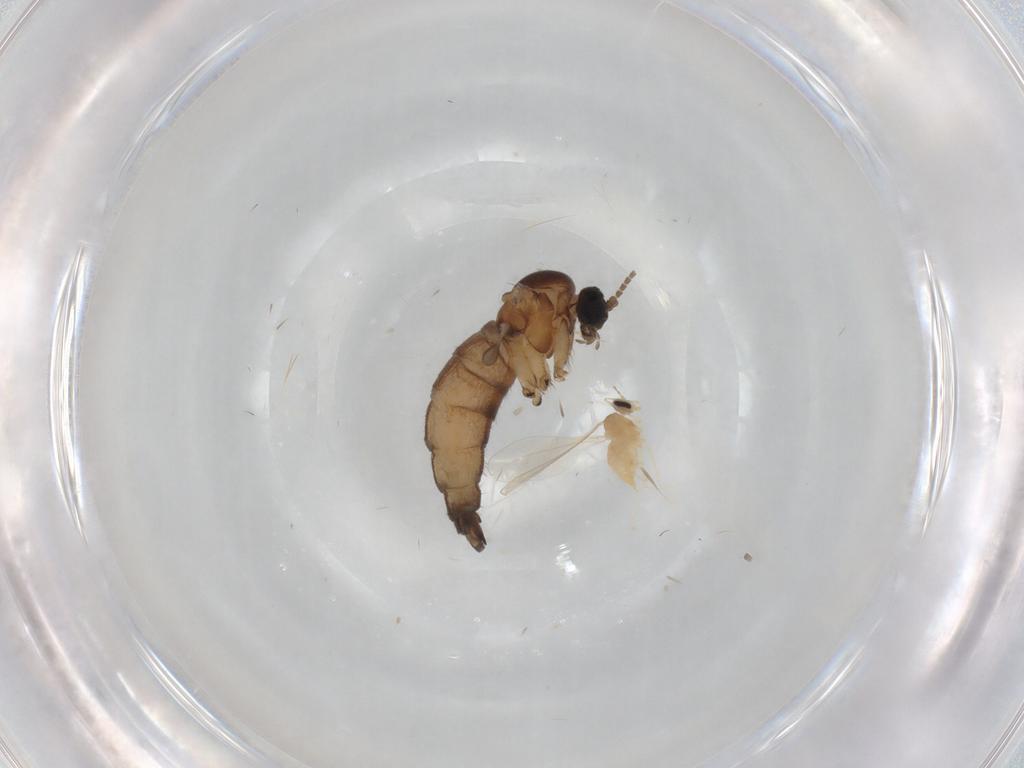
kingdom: Animalia
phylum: Arthropoda
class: Insecta
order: Diptera
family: Sciaridae
